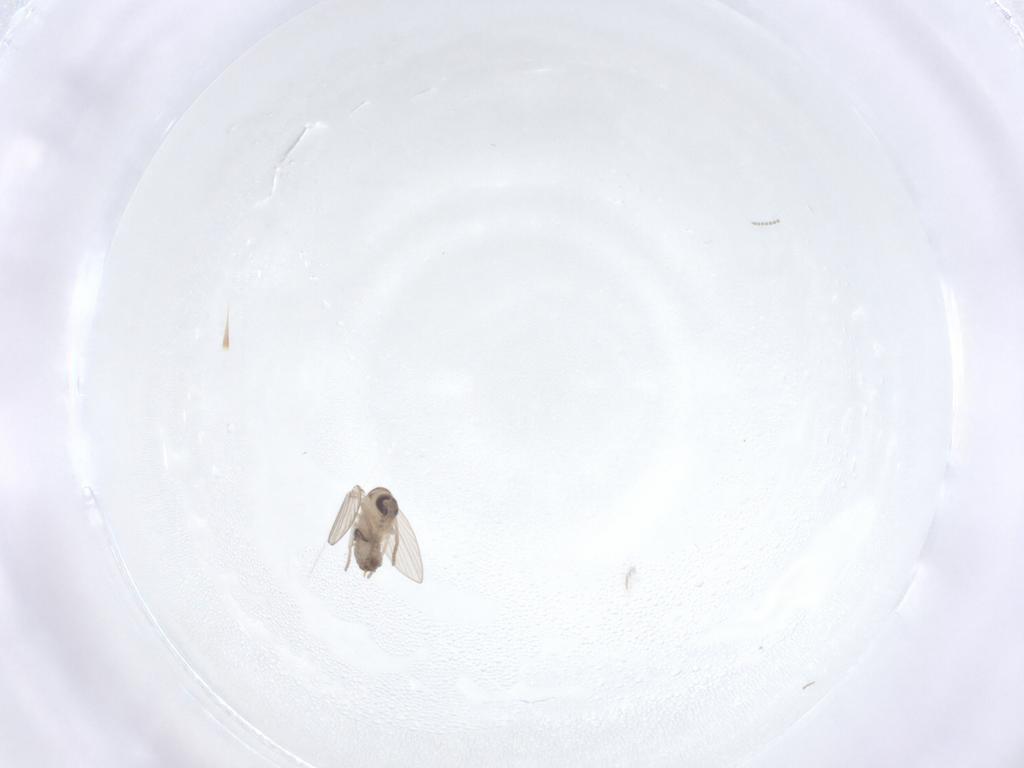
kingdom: Animalia
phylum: Arthropoda
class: Insecta
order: Diptera
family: Psychodidae
